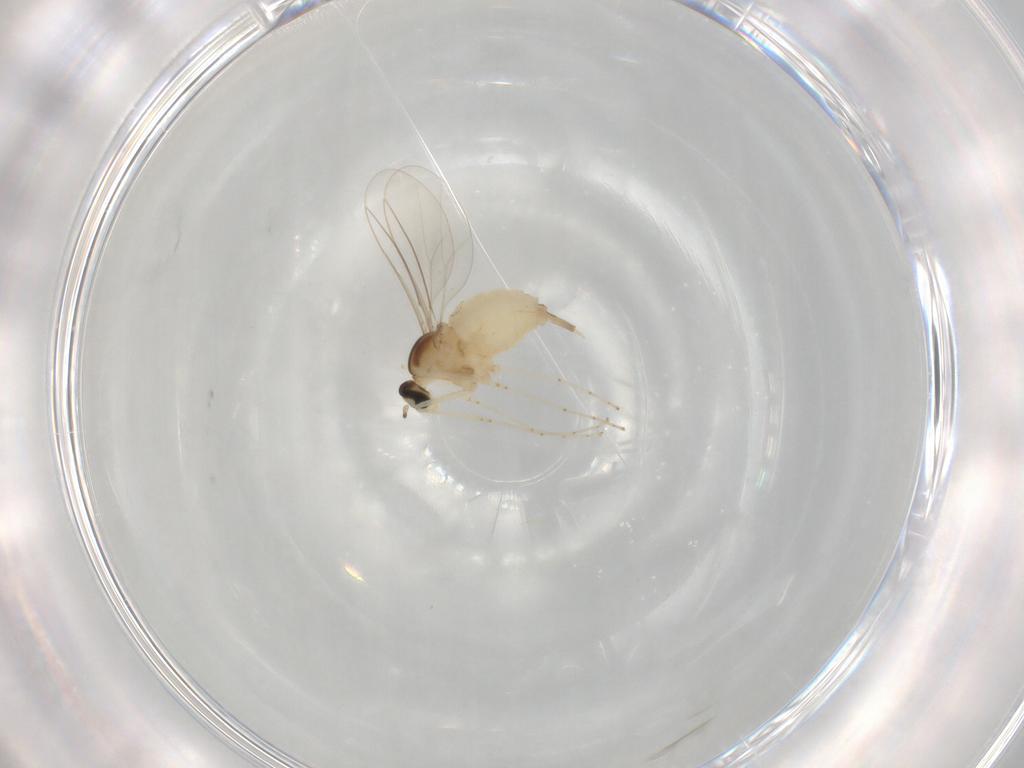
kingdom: Animalia
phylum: Arthropoda
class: Insecta
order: Diptera
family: Cecidomyiidae
